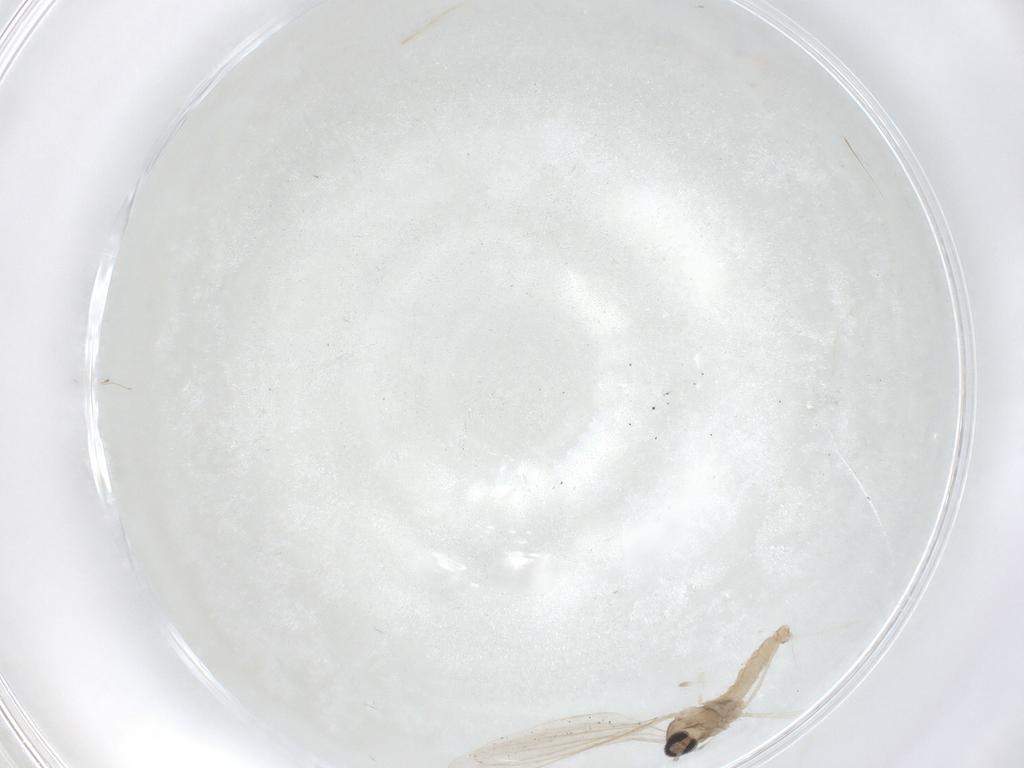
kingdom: Animalia
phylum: Arthropoda
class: Insecta
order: Diptera
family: Cecidomyiidae
